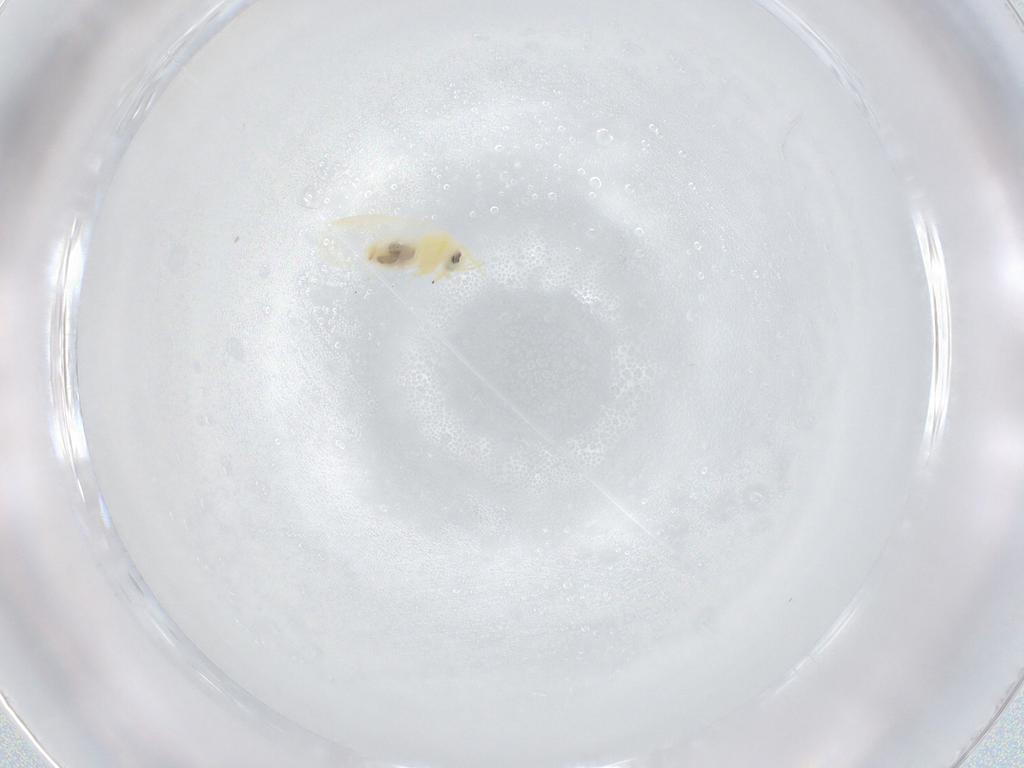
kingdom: Animalia
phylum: Arthropoda
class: Insecta
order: Hemiptera
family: Aleyrodidae
